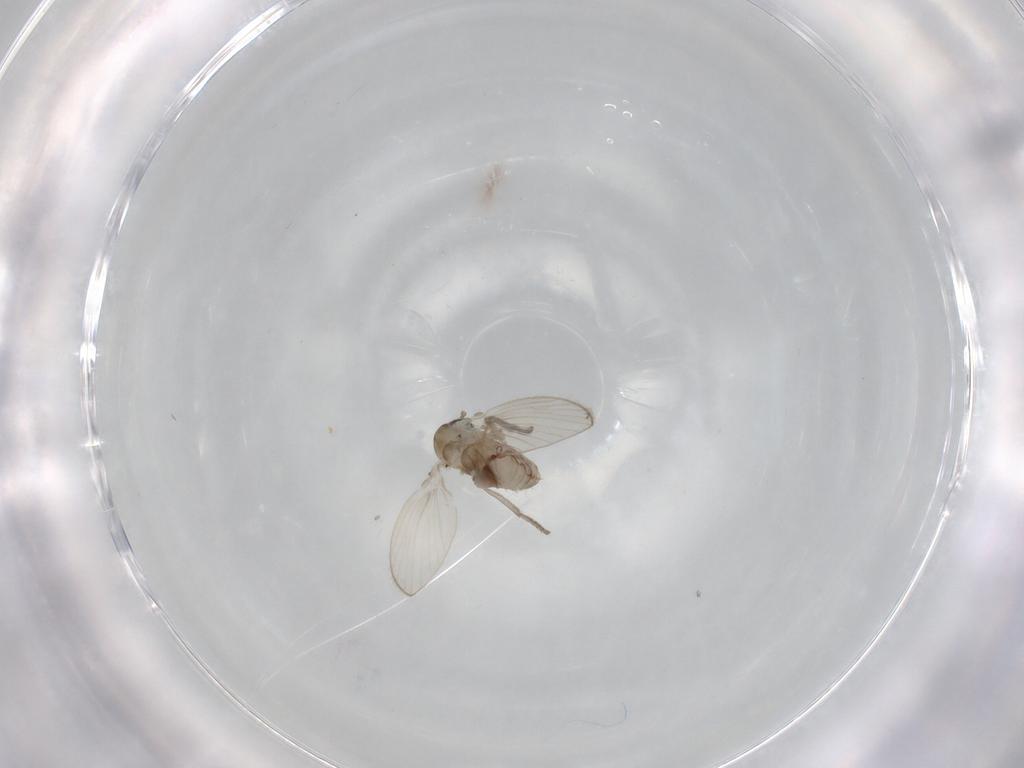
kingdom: Animalia
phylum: Arthropoda
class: Insecta
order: Diptera
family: Psychodidae
